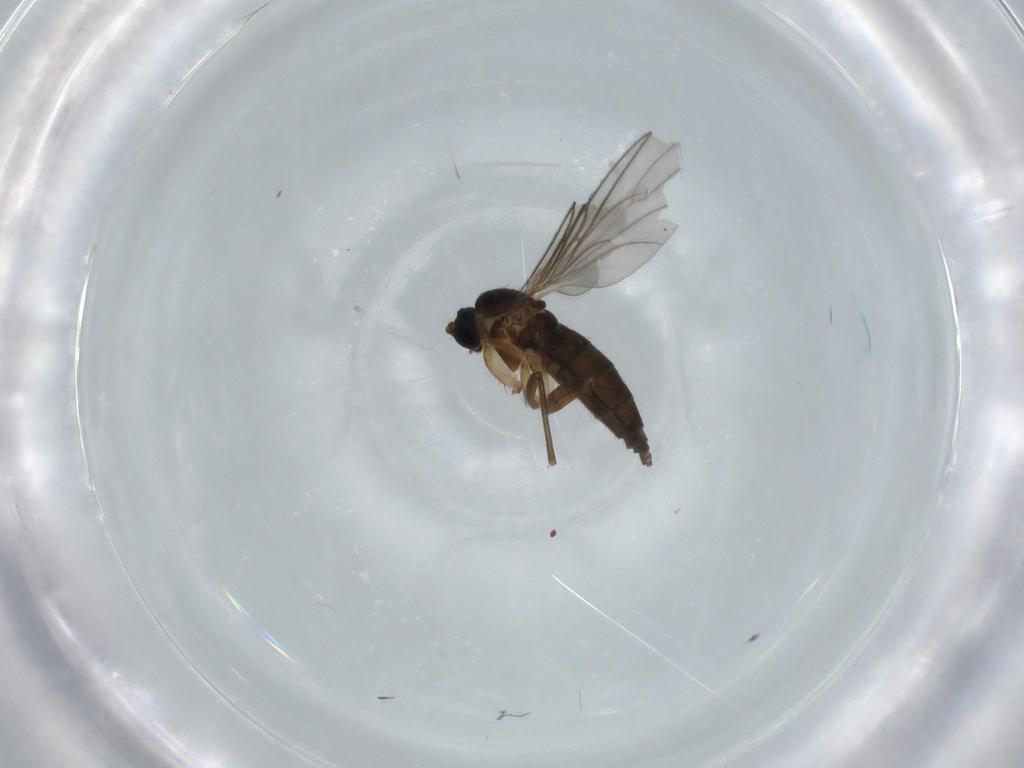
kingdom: Animalia
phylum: Arthropoda
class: Insecta
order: Diptera
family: Sciaridae
